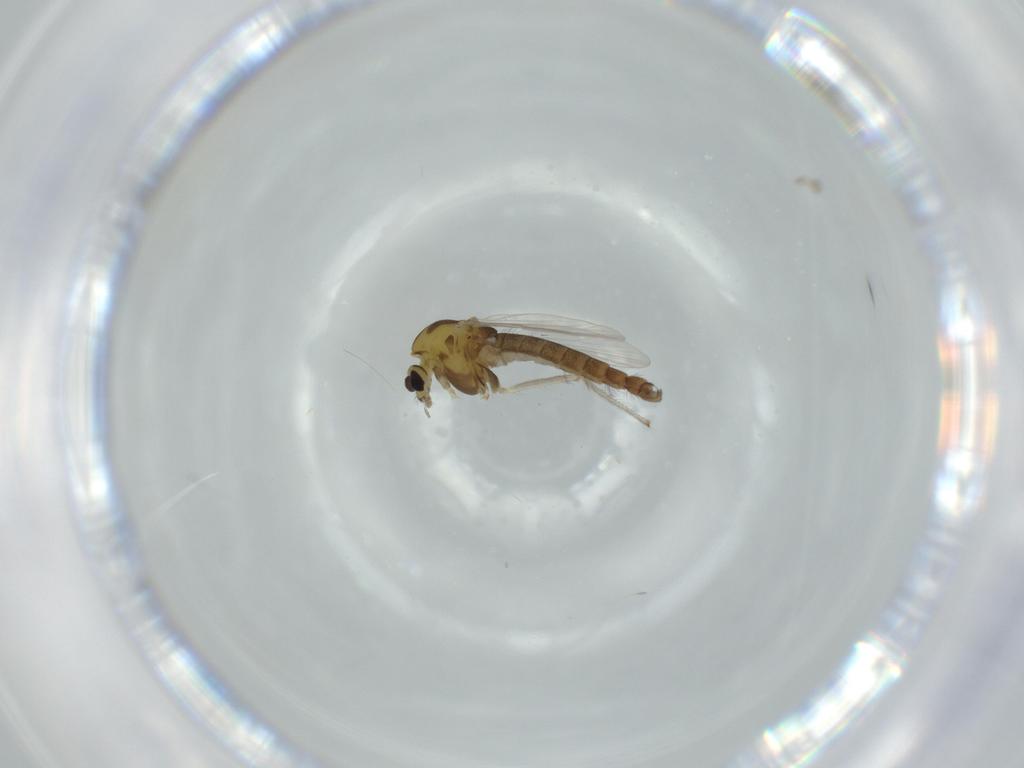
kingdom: Animalia
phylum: Arthropoda
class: Insecta
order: Diptera
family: Chironomidae
